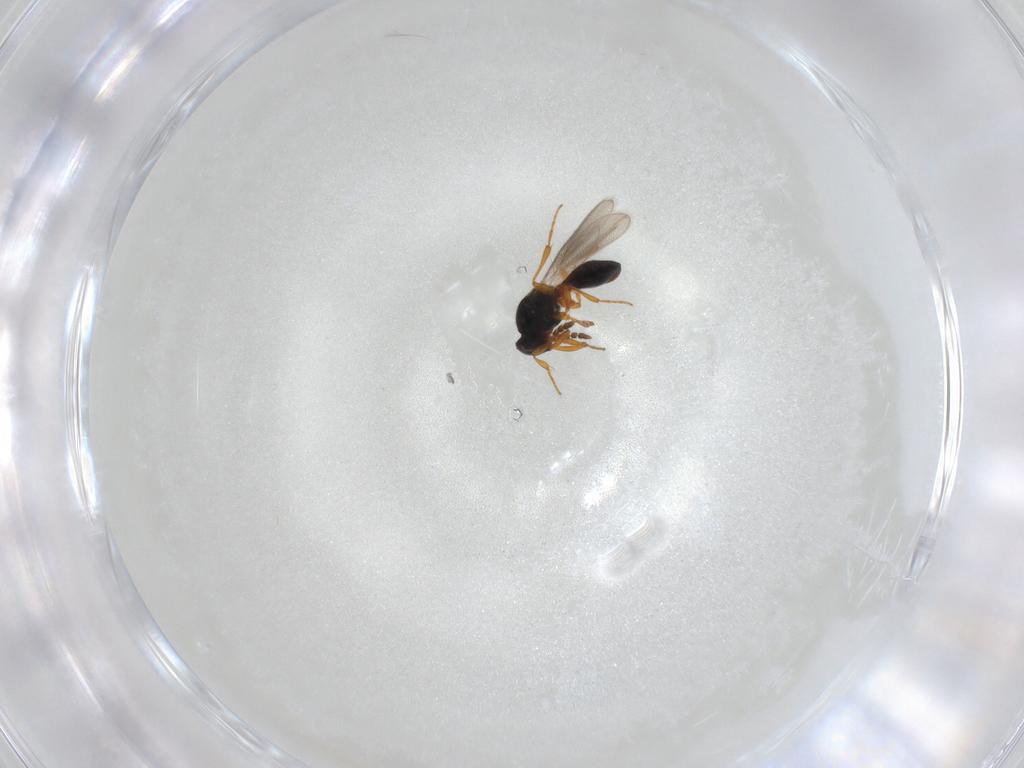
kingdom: Animalia
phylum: Arthropoda
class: Insecta
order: Hymenoptera
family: Platygastridae
